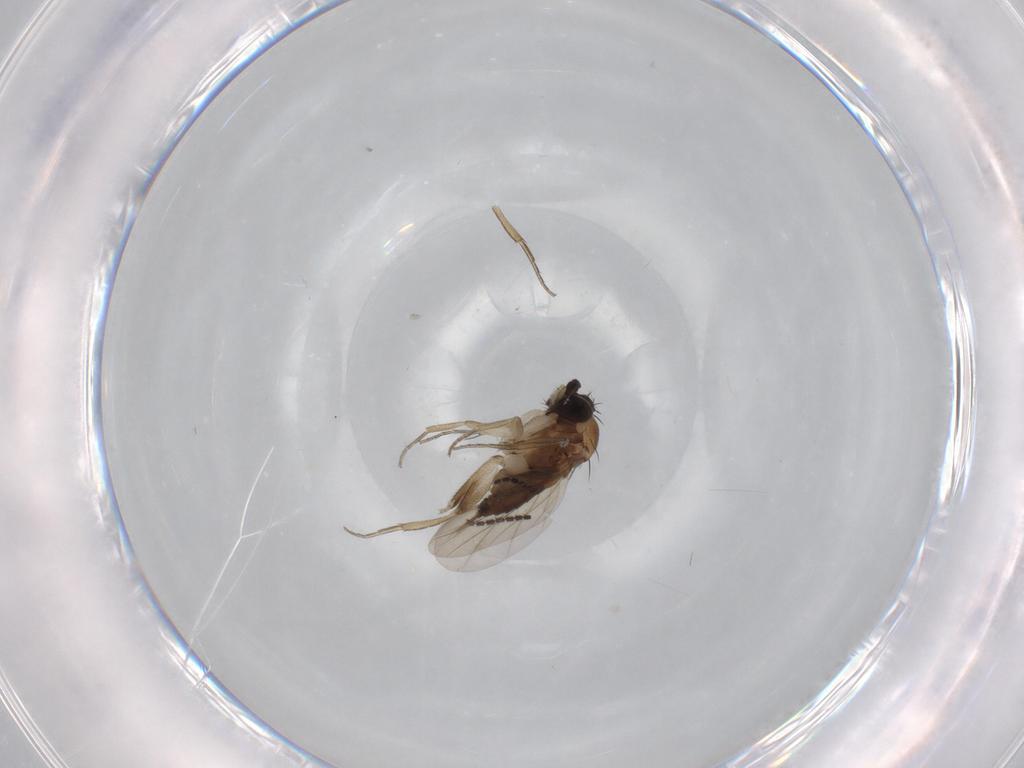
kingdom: Animalia
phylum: Arthropoda
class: Insecta
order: Diptera
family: Phoridae
